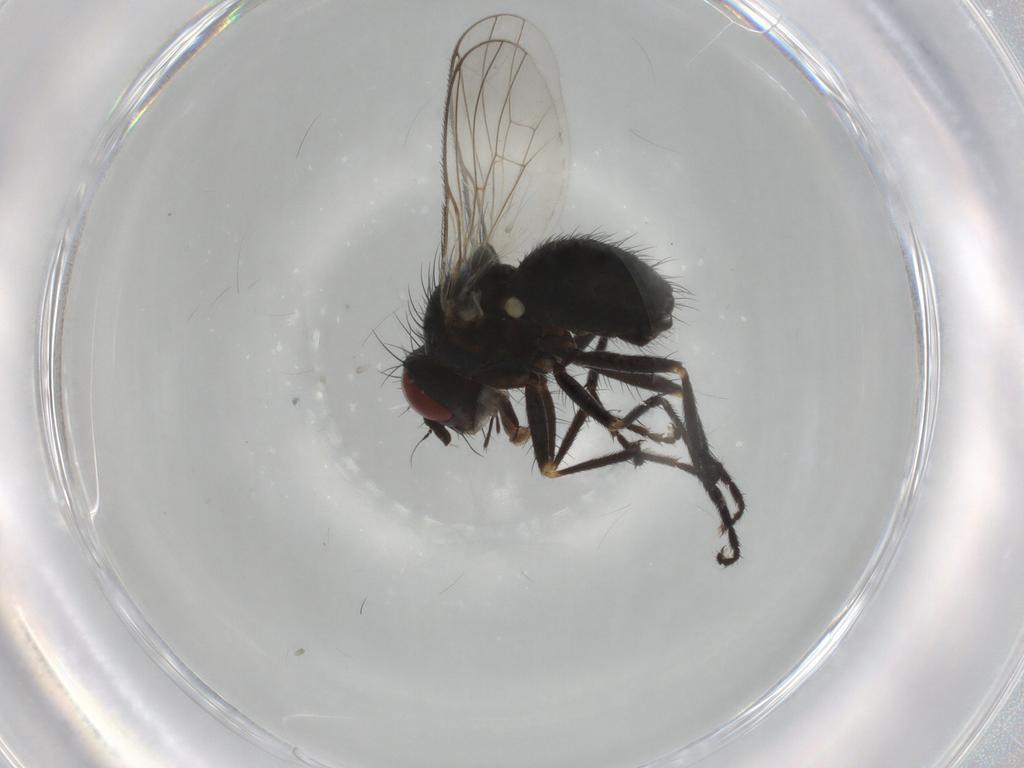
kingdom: Animalia
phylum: Arthropoda
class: Insecta
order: Diptera
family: Muscidae
